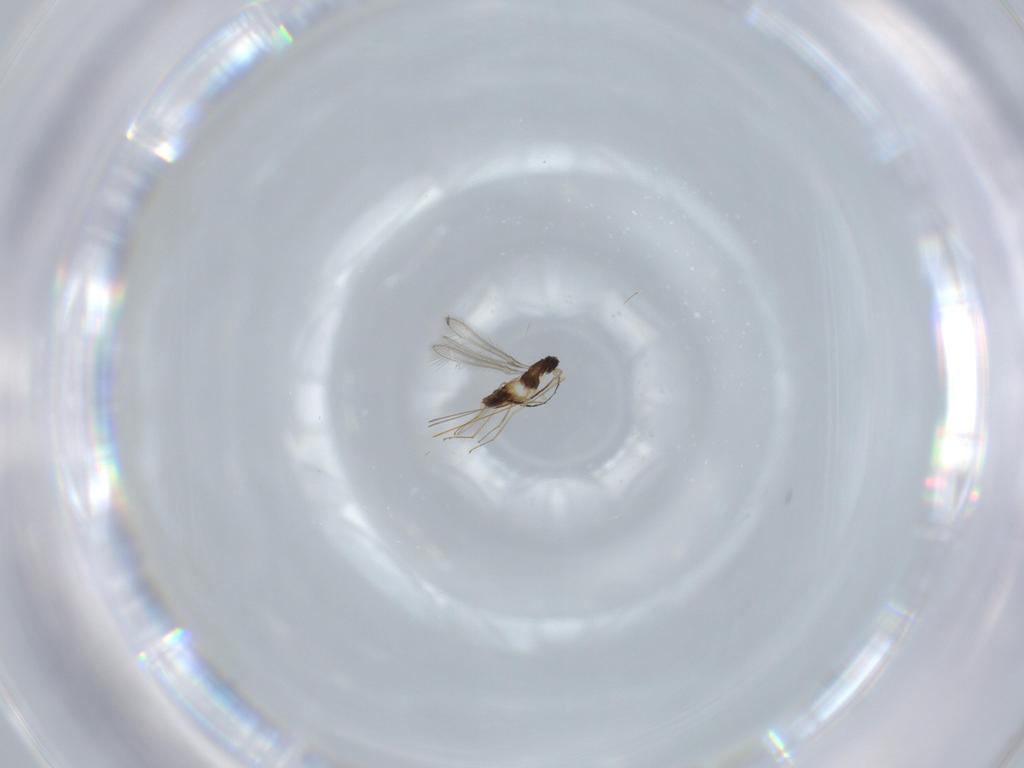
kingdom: Animalia
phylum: Arthropoda
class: Insecta
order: Hymenoptera
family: Mymaridae
